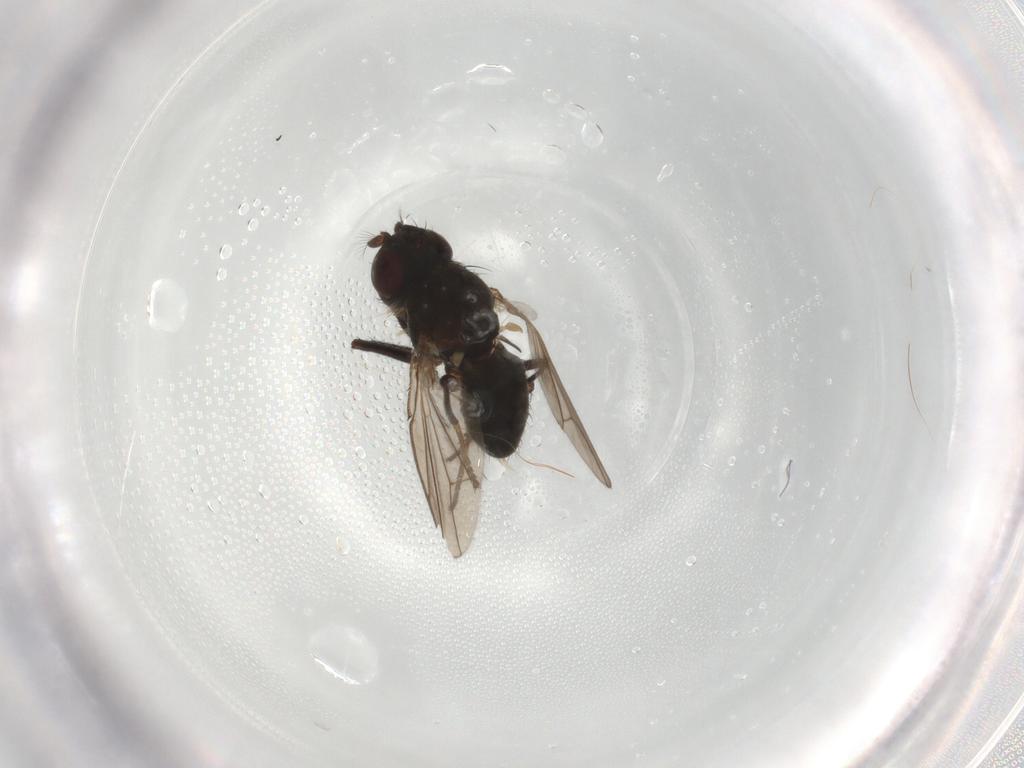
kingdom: Animalia
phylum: Arthropoda
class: Insecta
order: Diptera
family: Ephydridae
